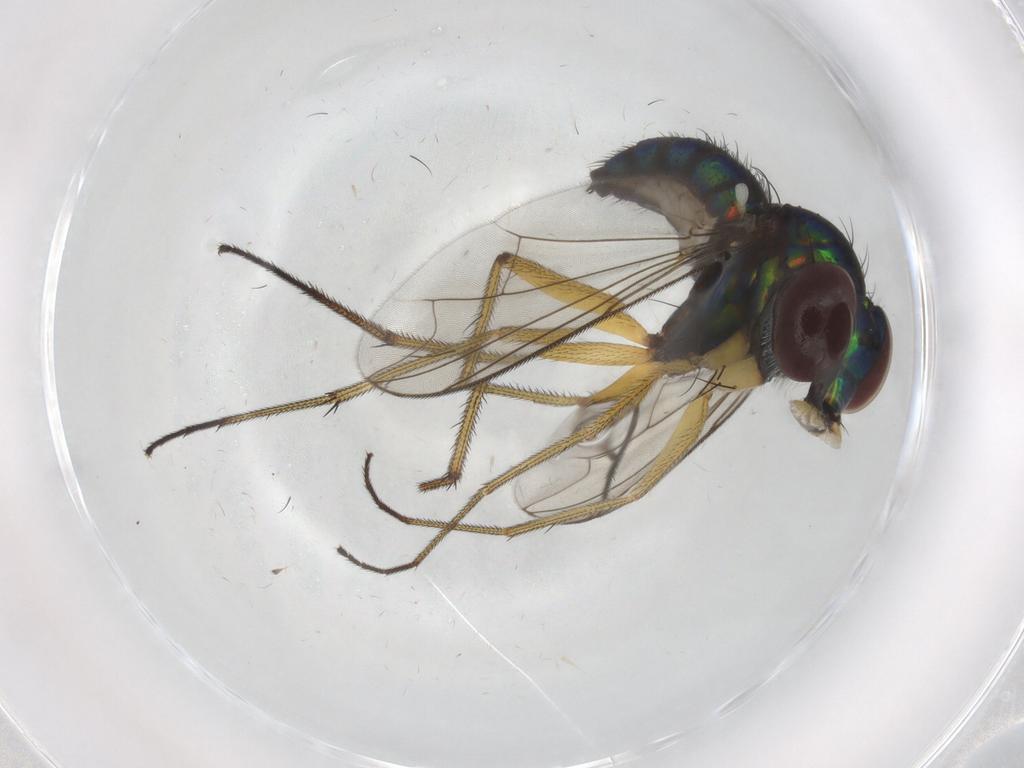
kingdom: Animalia
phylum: Arthropoda
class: Insecta
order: Diptera
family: Dolichopodidae
